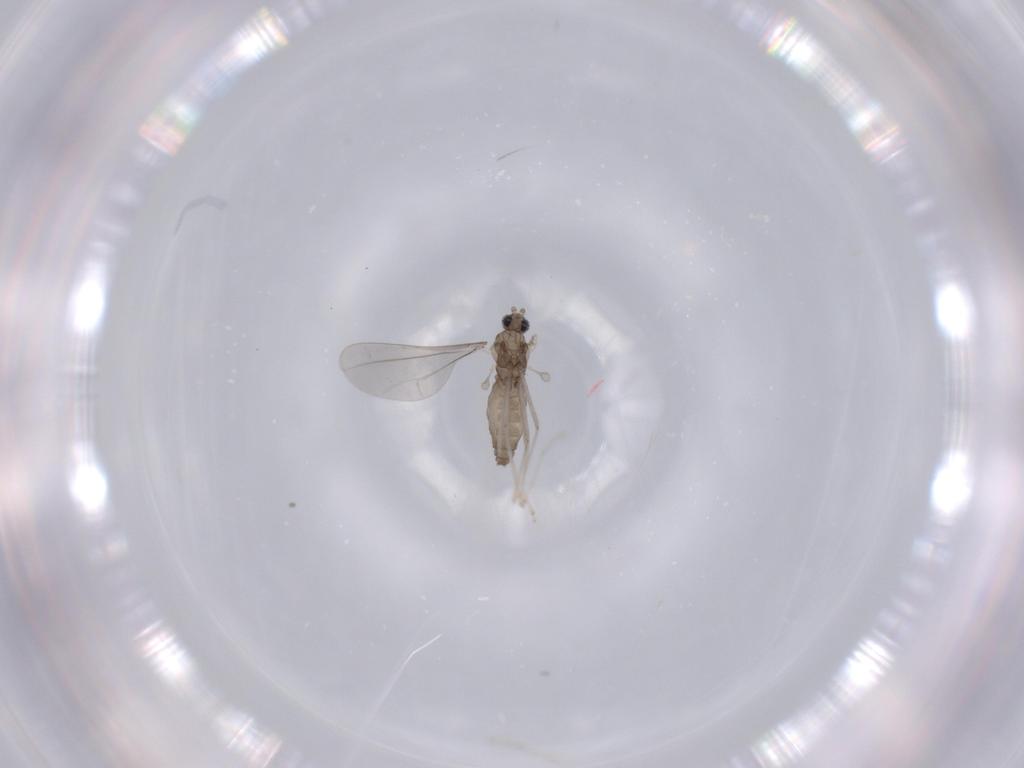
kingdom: Animalia
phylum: Arthropoda
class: Insecta
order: Diptera
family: Cecidomyiidae
